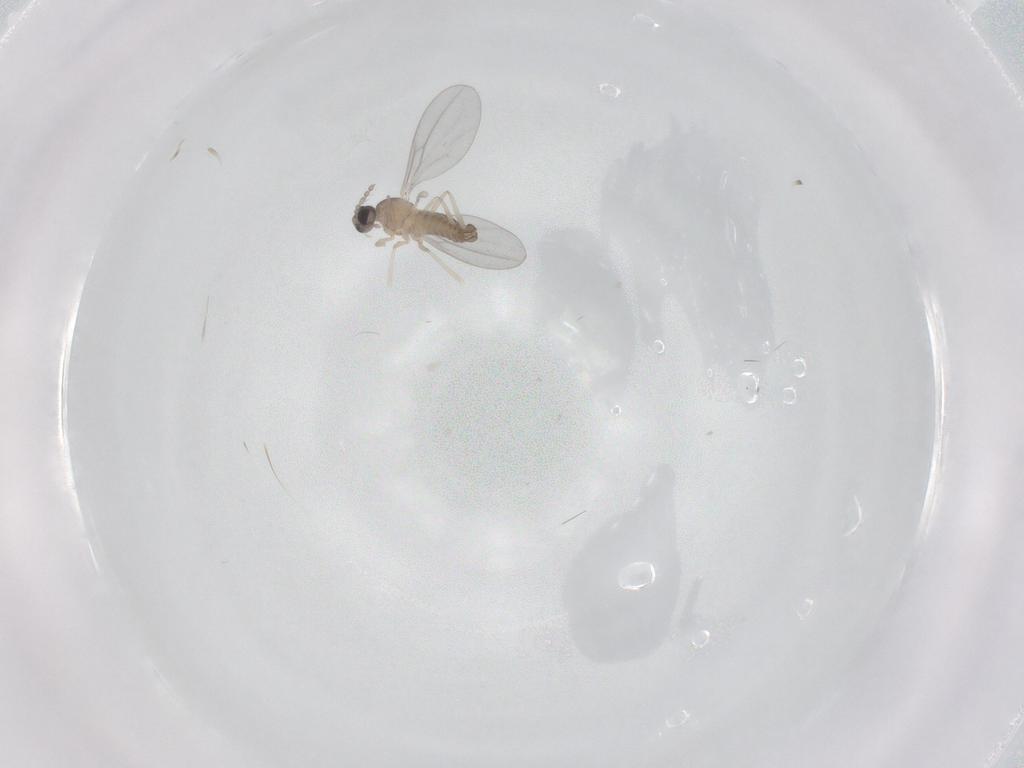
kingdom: Animalia
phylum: Arthropoda
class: Insecta
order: Diptera
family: Cecidomyiidae
